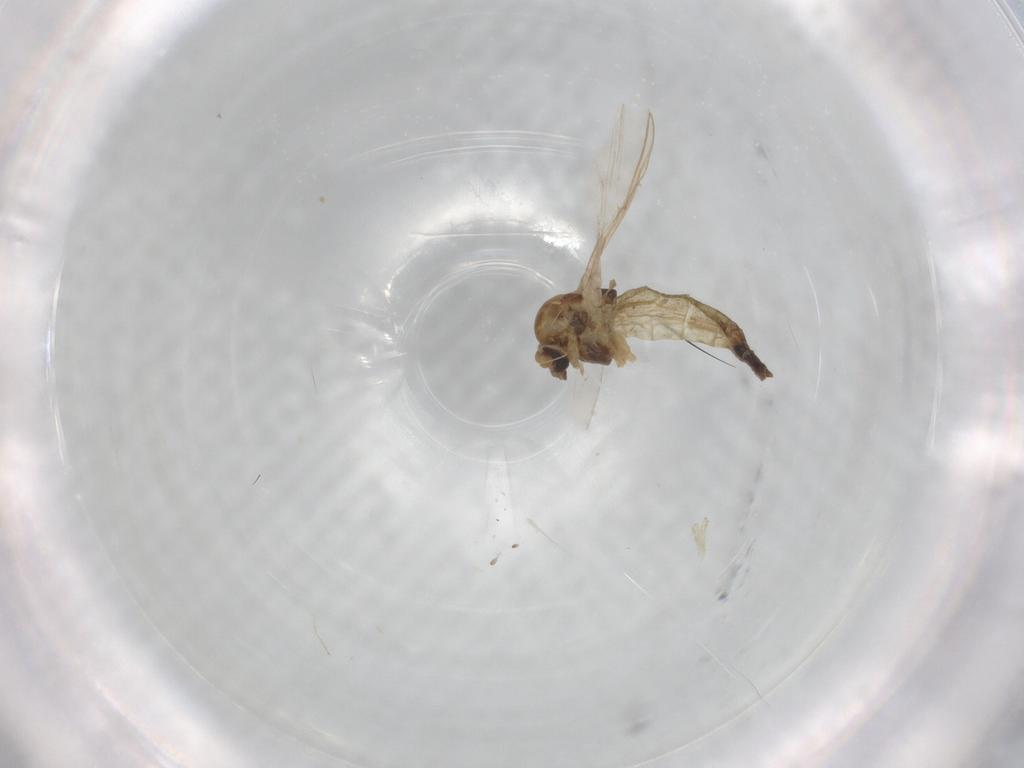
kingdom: Animalia
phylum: Arthropoda
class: Insecta
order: Diptera
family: Chironomidae
